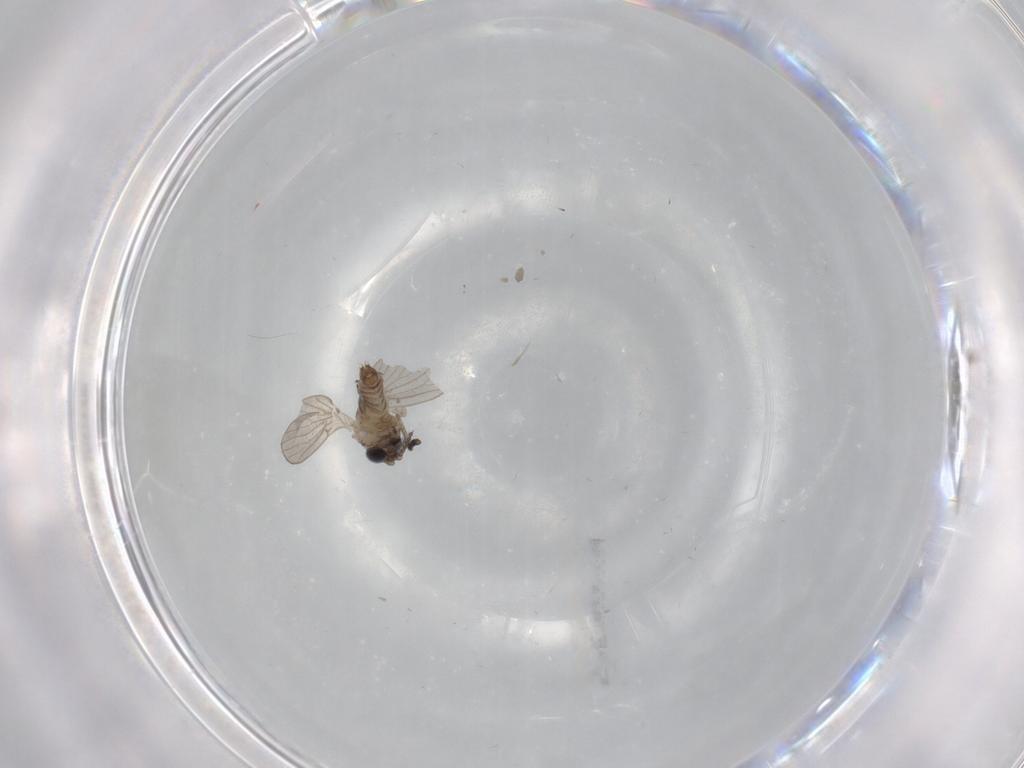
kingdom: Animalia
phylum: Arthropoda
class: Insecta
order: Diptera
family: Psychodidae
